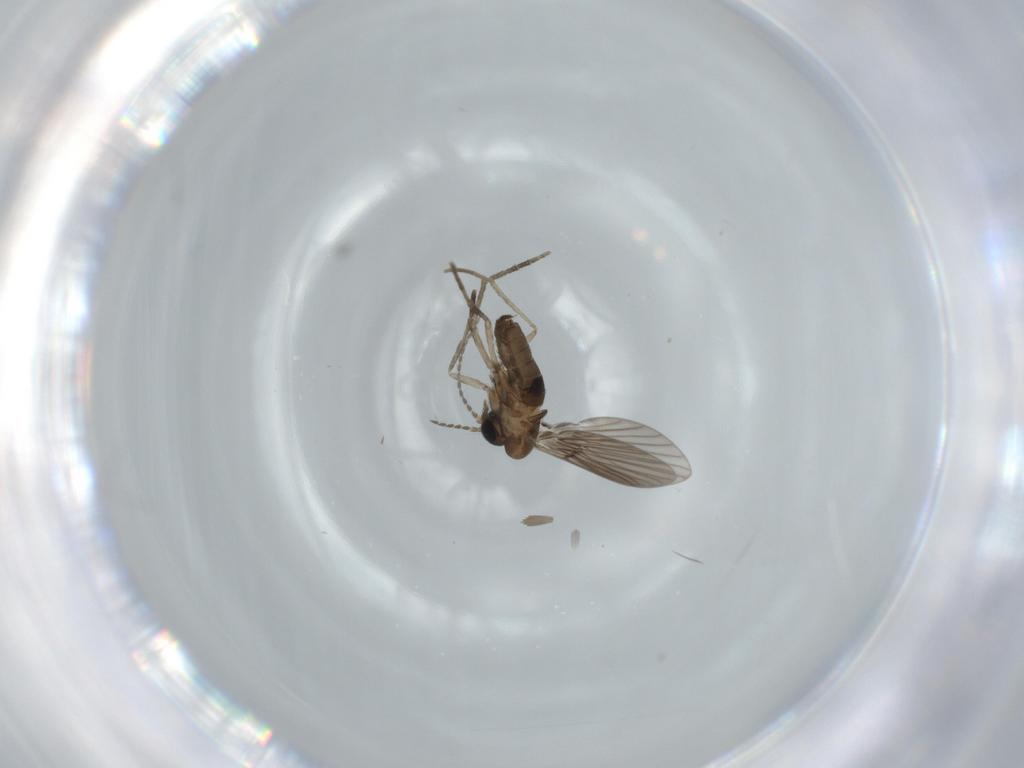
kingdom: Animalia
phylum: Arthropoda
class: Insecta
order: Diptera
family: Psychodidae
